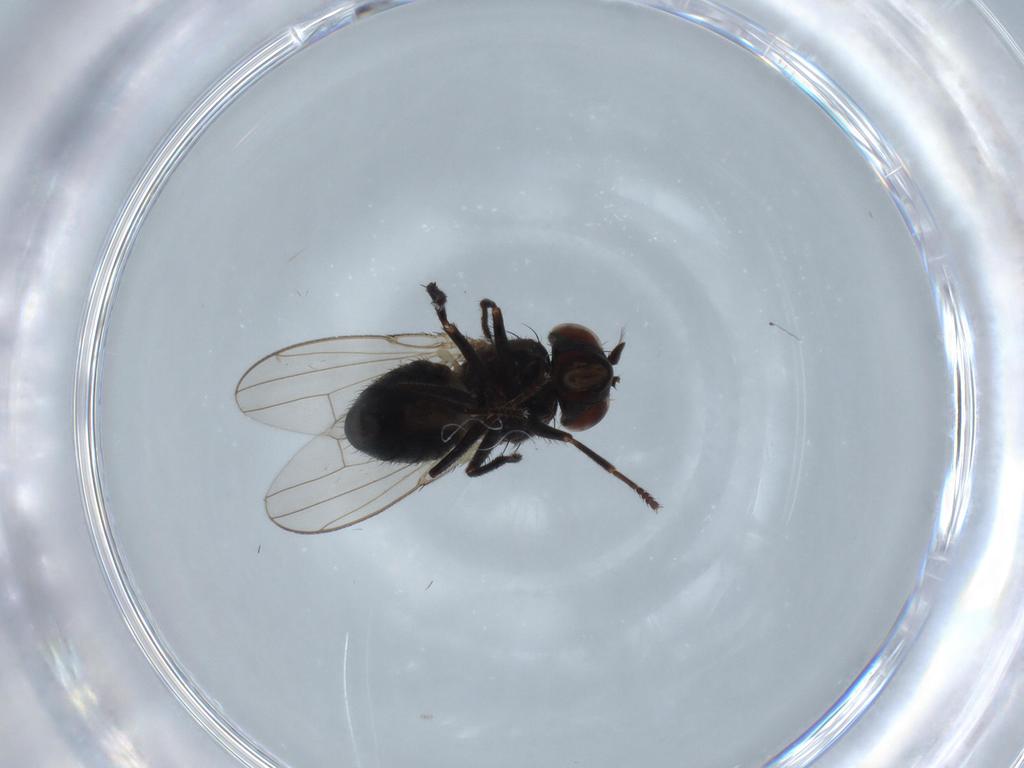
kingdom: Animalia
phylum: Arthropoda
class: Insecta
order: Diptera
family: Ephydridae
